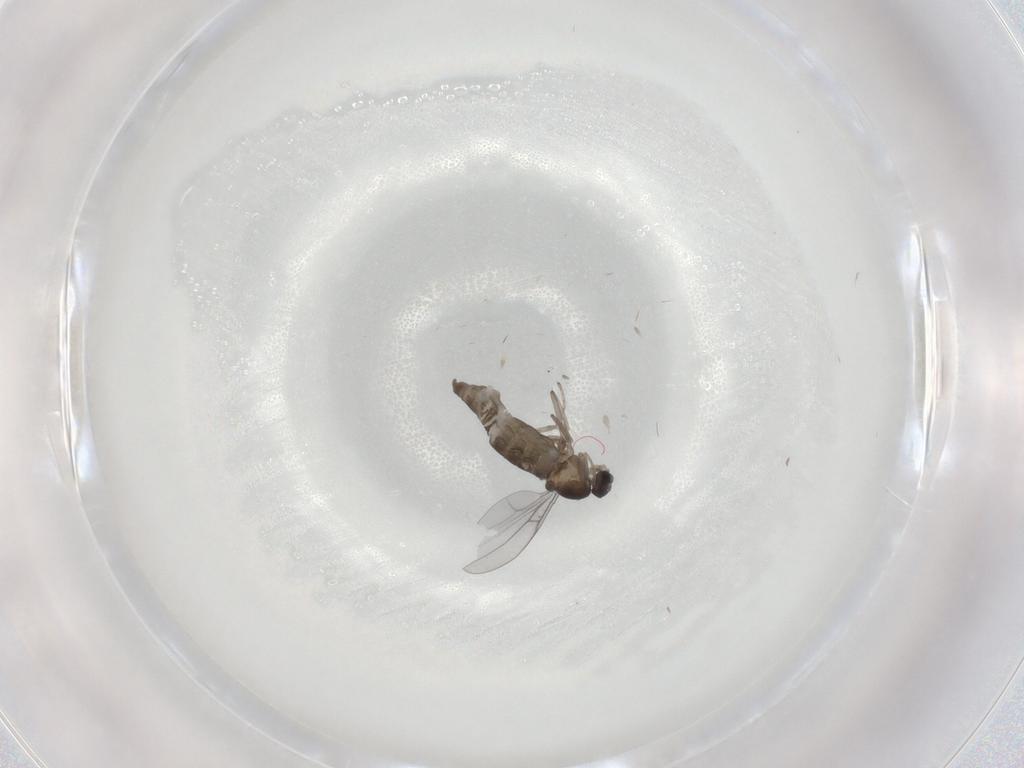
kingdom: Animalia
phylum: Arthropoda
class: Insecta
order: Diptera
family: Cecidomyiidae
